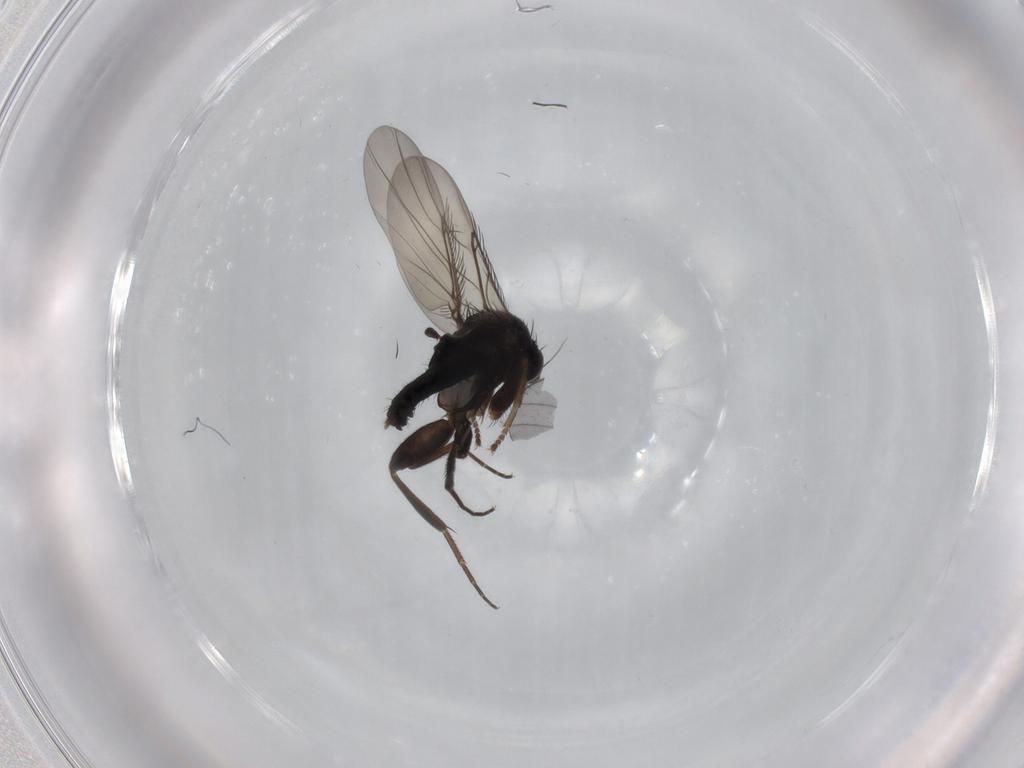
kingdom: Animalia
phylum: Arthropoda
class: Insecta
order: Diptera
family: Phoridae
